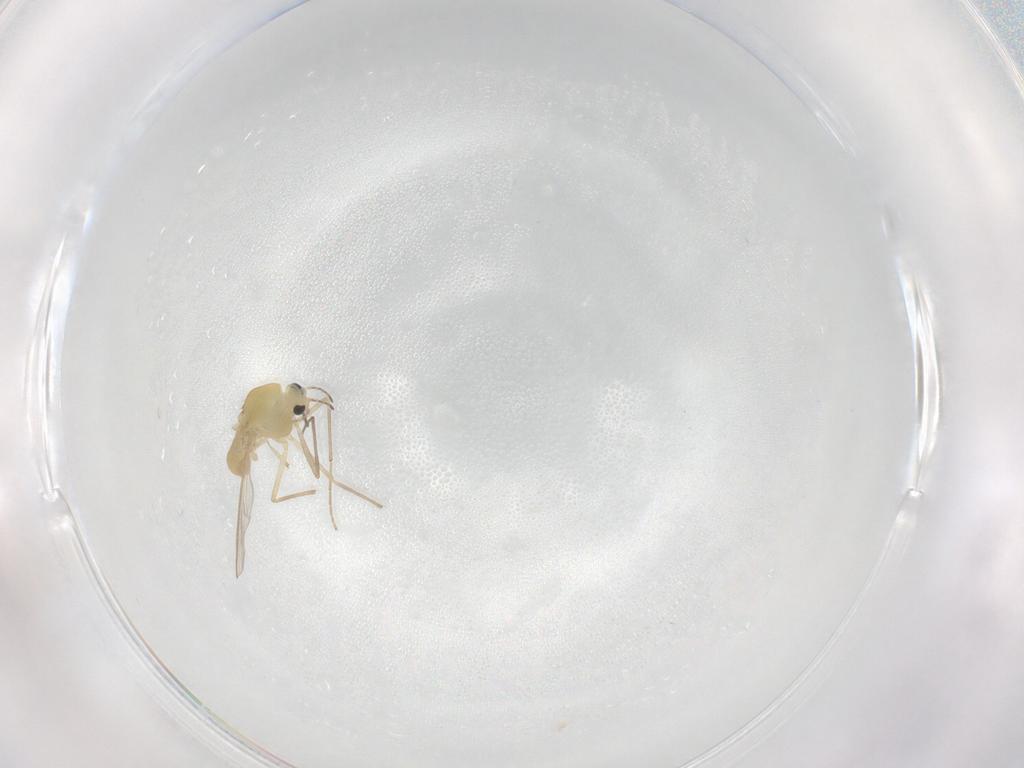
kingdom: Animalia
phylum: Arthropoda
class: Insecta
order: Diptera
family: Chironomidae
